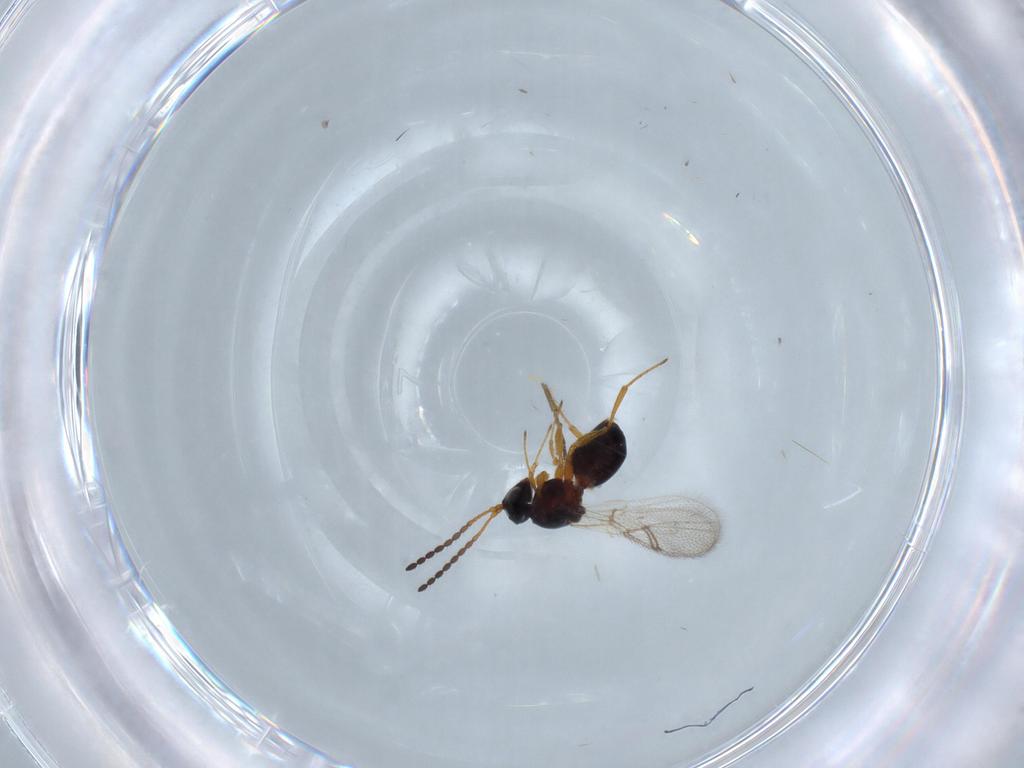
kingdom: Animalia
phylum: Arthropoda
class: Insecta
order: Hymenoptera
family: Figitidae
